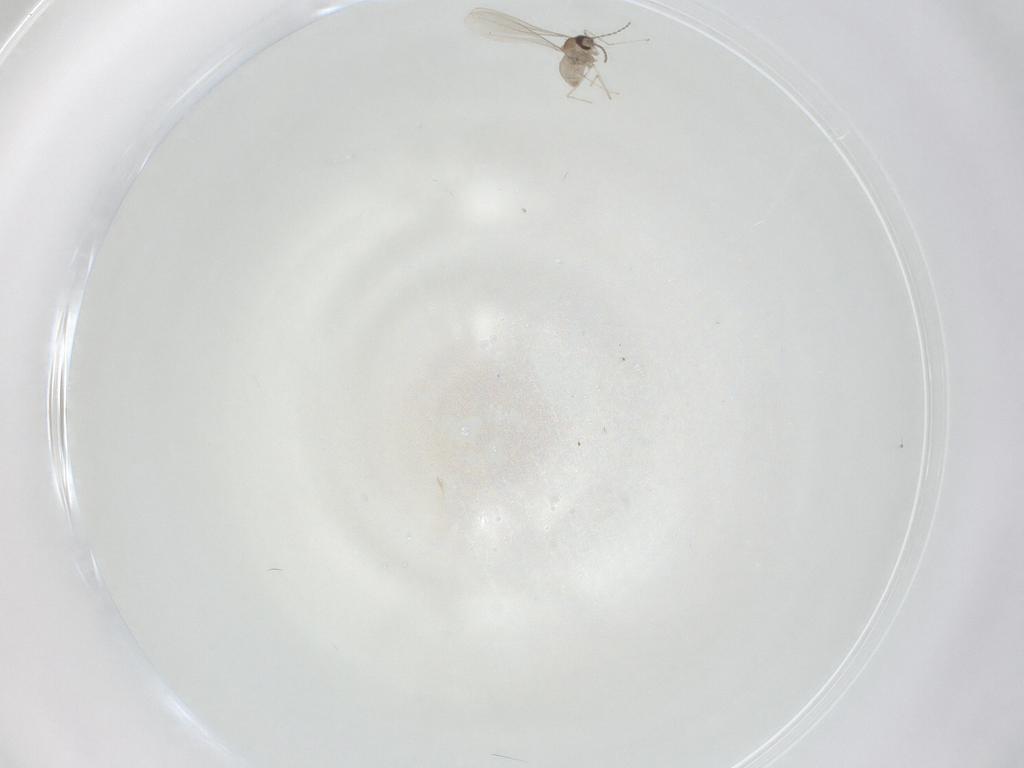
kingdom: Animalia
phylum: Arthropoda
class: Insecta
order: Diptera
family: Cecidomyiidae
